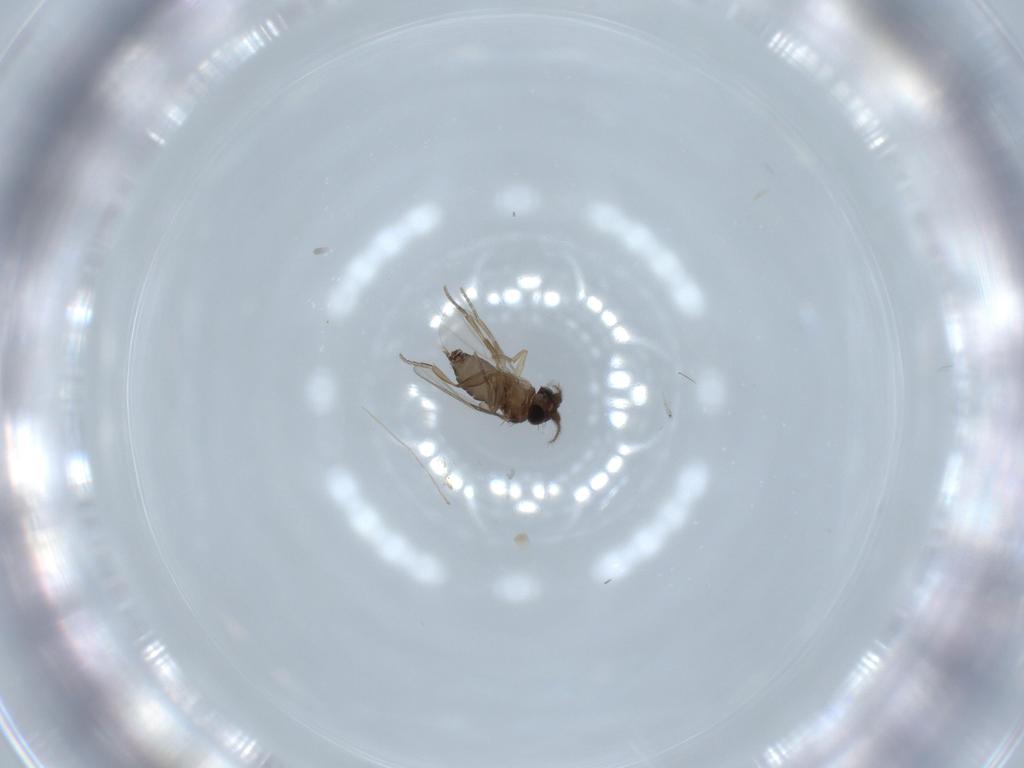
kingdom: Animalia
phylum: Arthropoda
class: Insecta
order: Diptera
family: Phoridae
